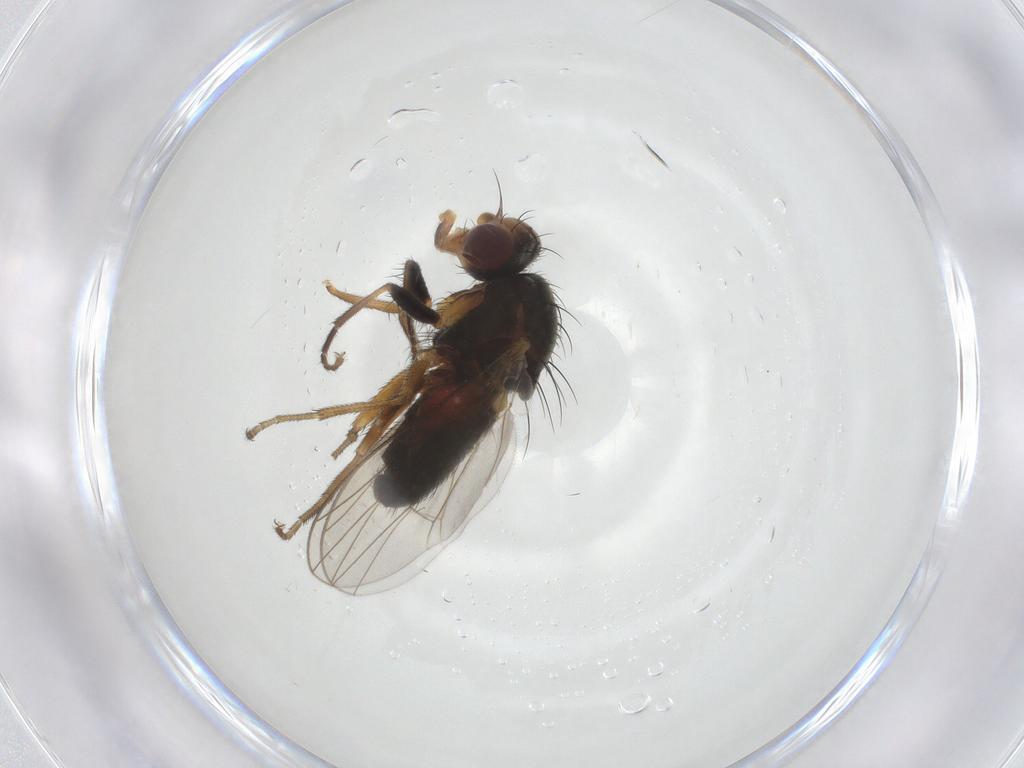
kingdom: Animalia
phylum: Arthropoda
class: Insecta
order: Diptera
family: Heleomyzidae
